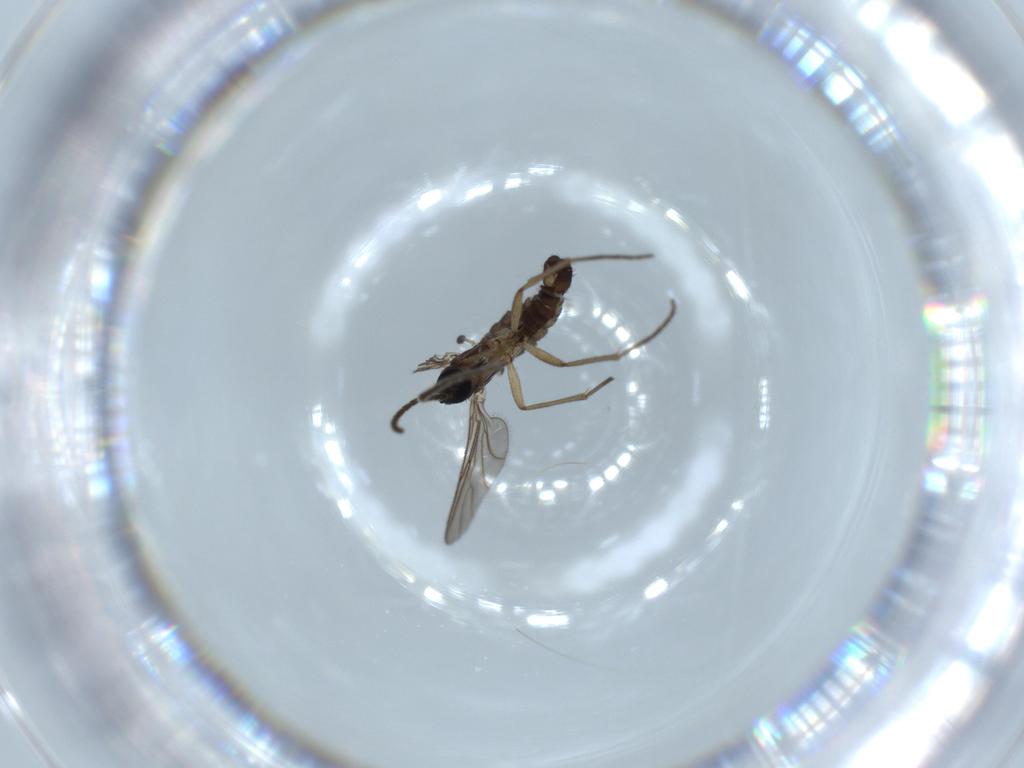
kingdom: Animalia
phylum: Arthropoda
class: Insecta
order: Diptera
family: Sciaridae
